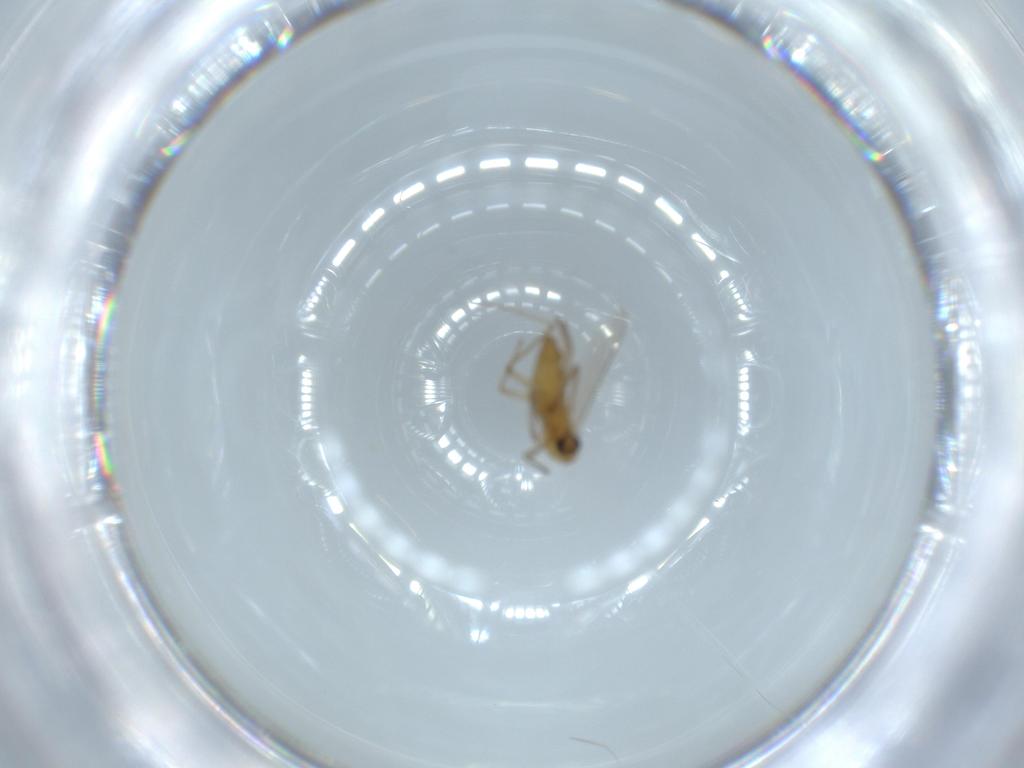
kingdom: Animalia
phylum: Arthropoda
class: Insecta
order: Diptera
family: Chironomidae
